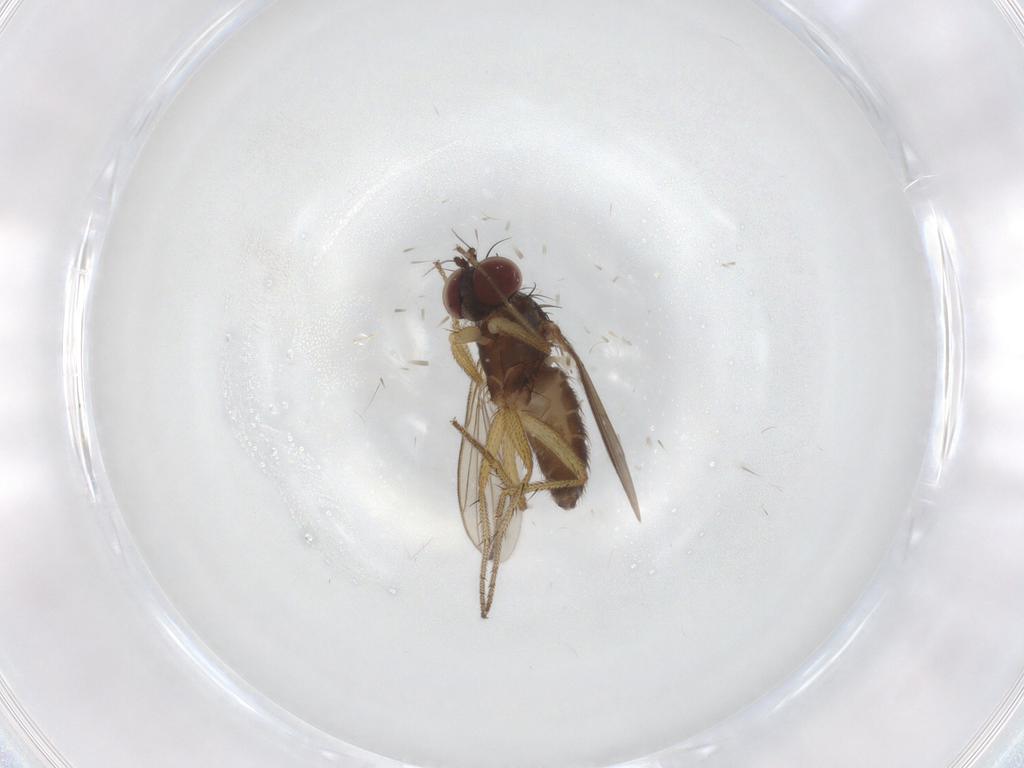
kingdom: Animalia
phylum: Arthropoda
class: Insecta
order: Diptera
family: Chironomidae
